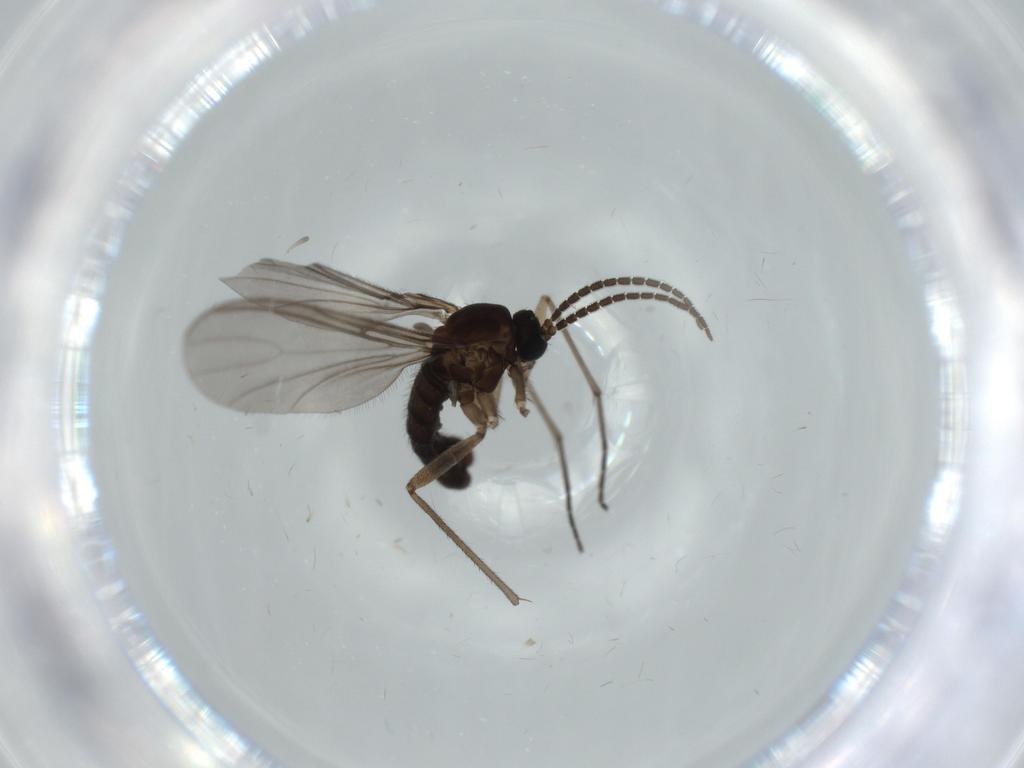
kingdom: Animalia
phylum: Arthropoda
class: Insecta
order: Diptera
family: Sciaridae
